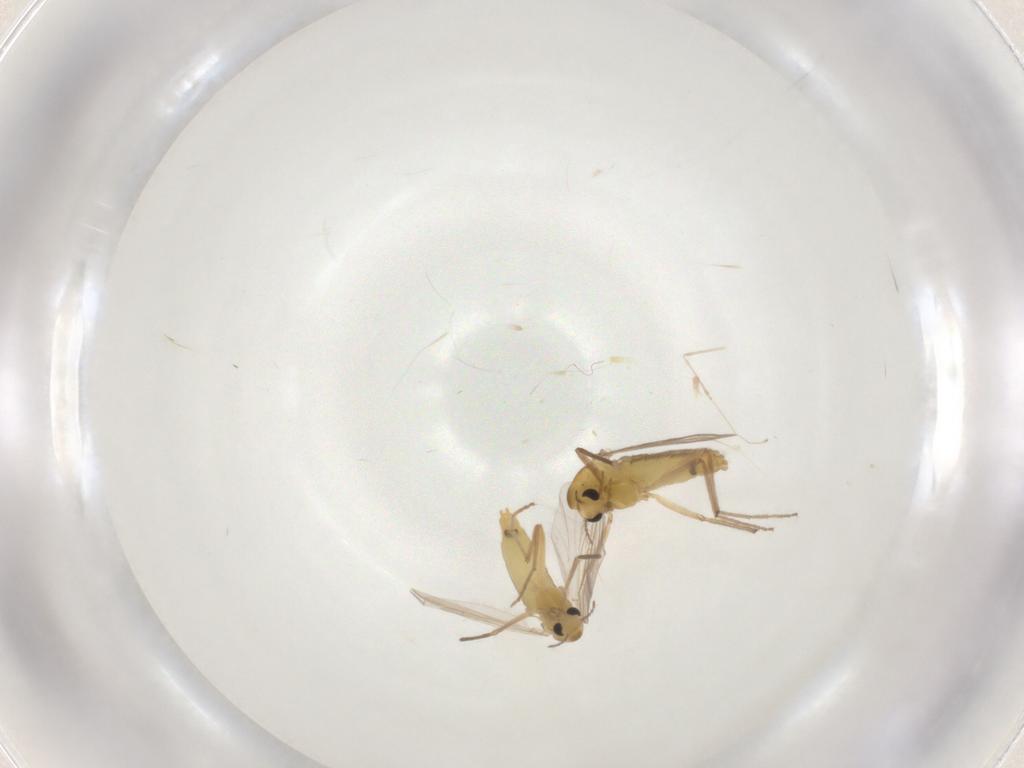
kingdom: Animalia
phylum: Arthropoda
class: Insecta
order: Diptera
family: Chironomidae
